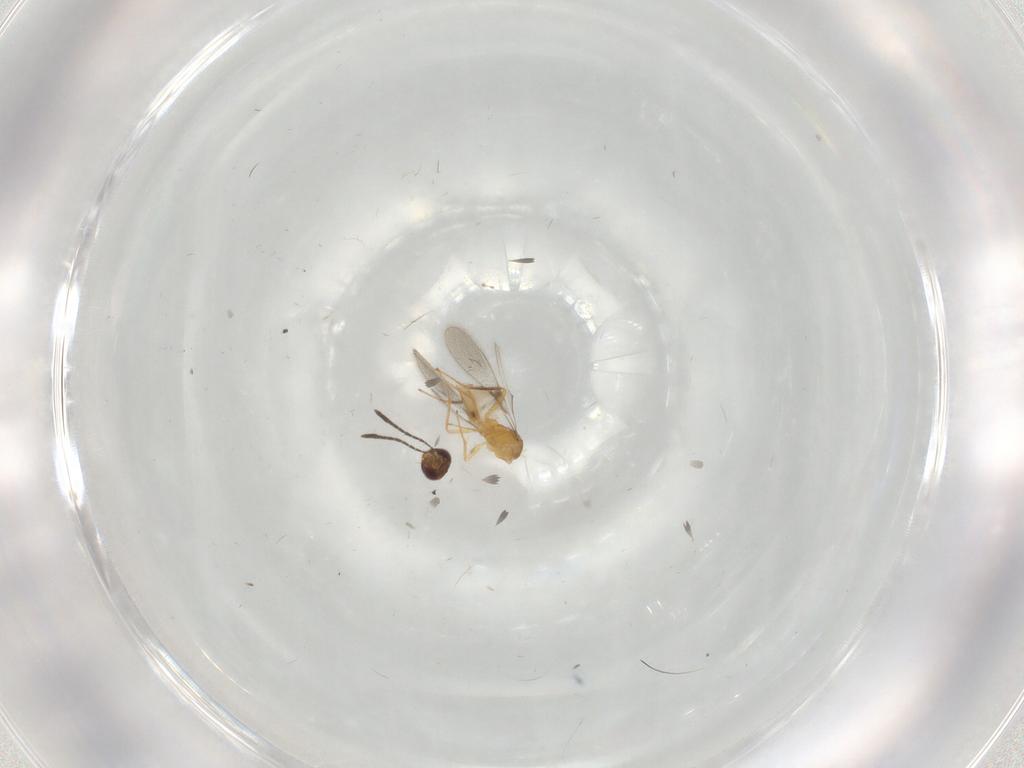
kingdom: Animalia
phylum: Arthropoda
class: Insecta
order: Hymenoptera
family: Mymaridae
